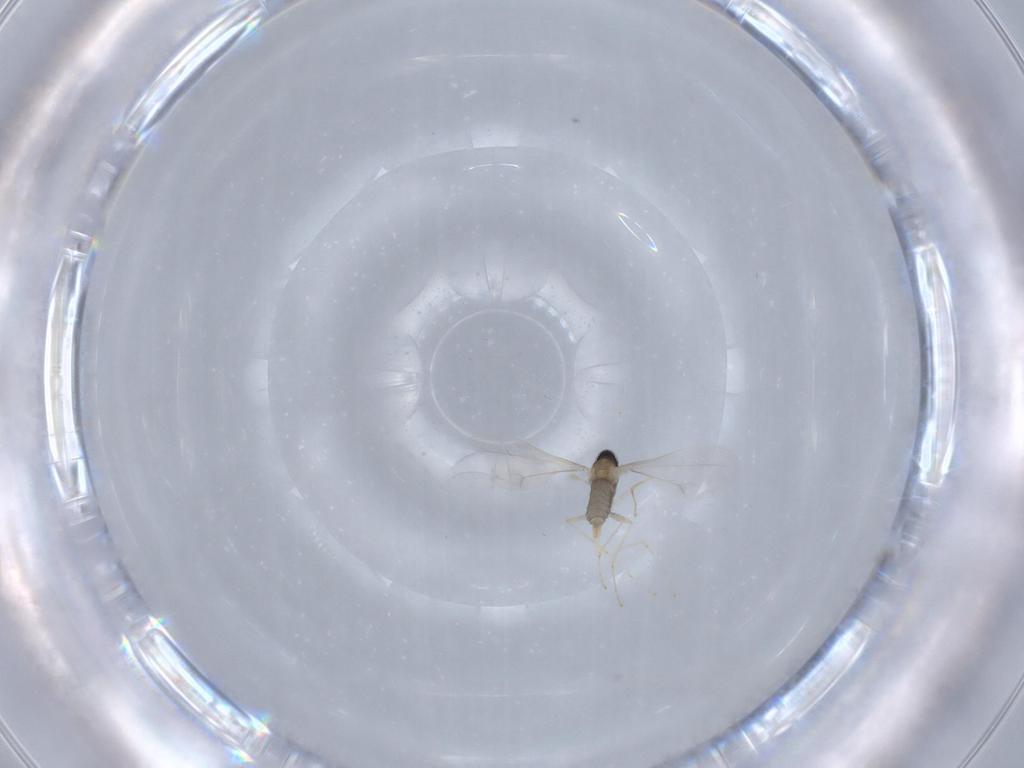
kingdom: Animalia
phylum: Arthropoda
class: Insecta
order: Diptera
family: Cecidomyiidae
